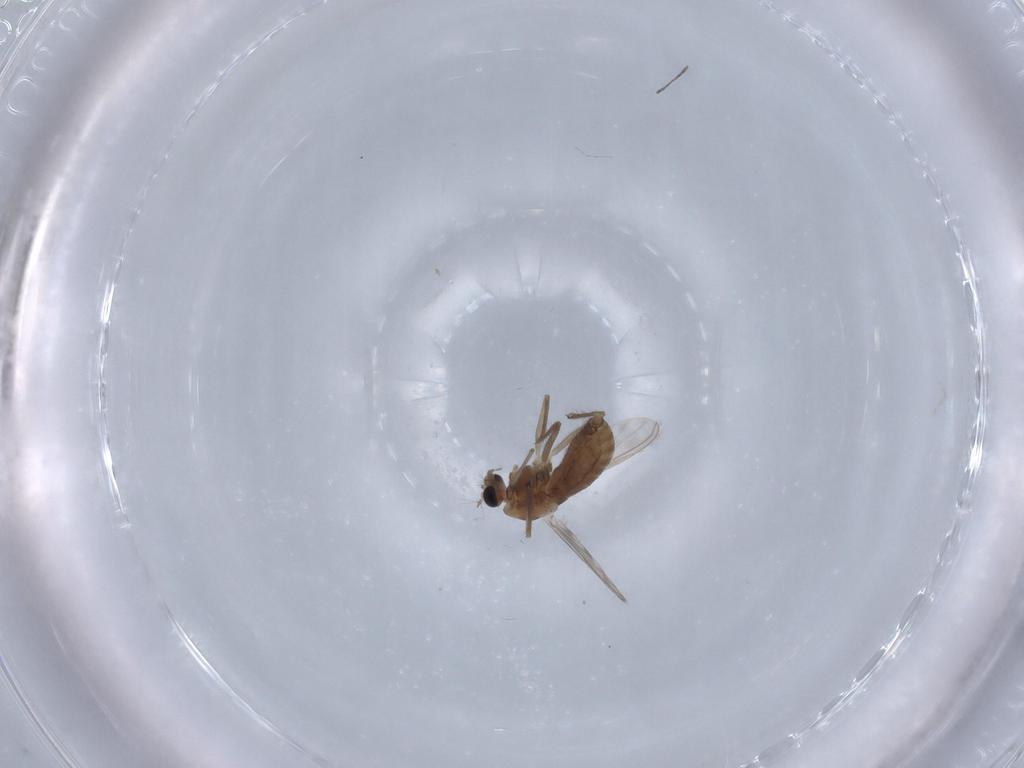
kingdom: Animalia
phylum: Arthropoda
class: Insecta
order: Diptera
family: Chironomidae
